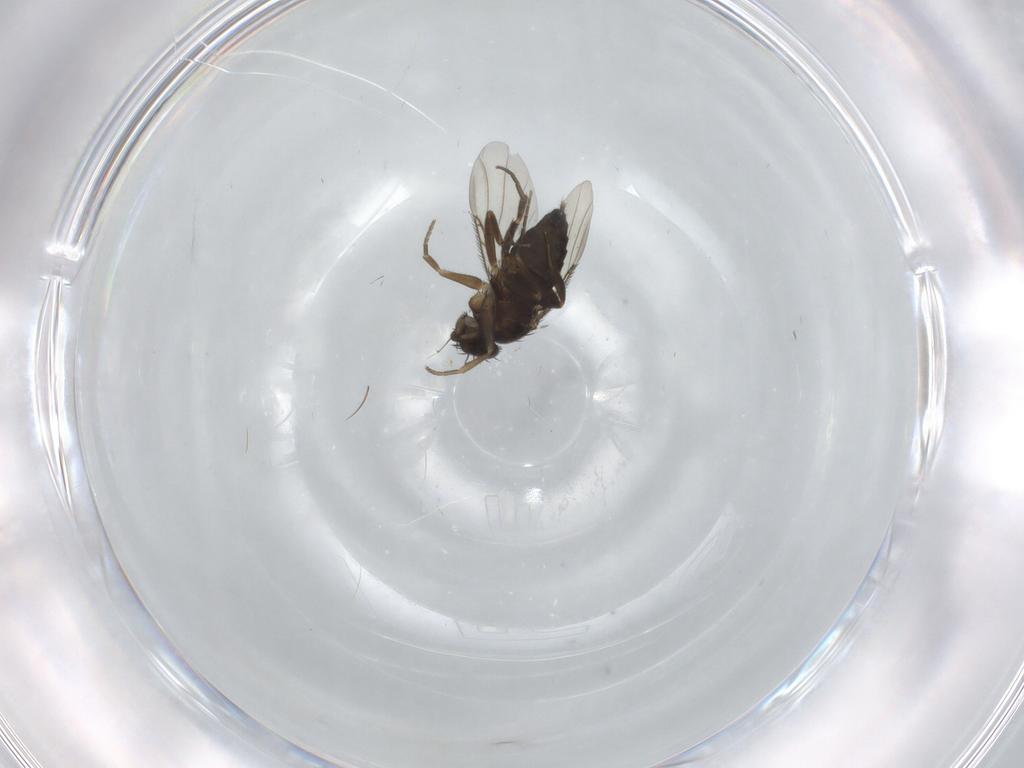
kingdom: Animalia
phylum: Arthropoda
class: Insecta
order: Diptera
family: Phoridae
